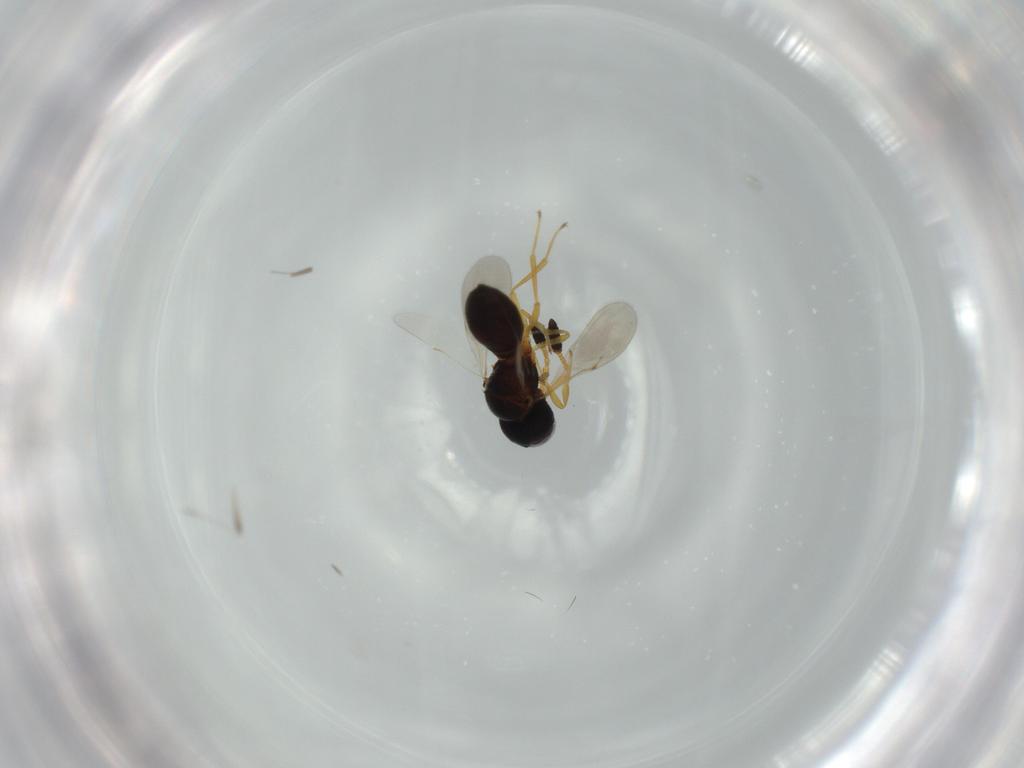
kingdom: Animalia
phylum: Arthropoda
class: Insecta
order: Hymenoptera
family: Scelionidae
